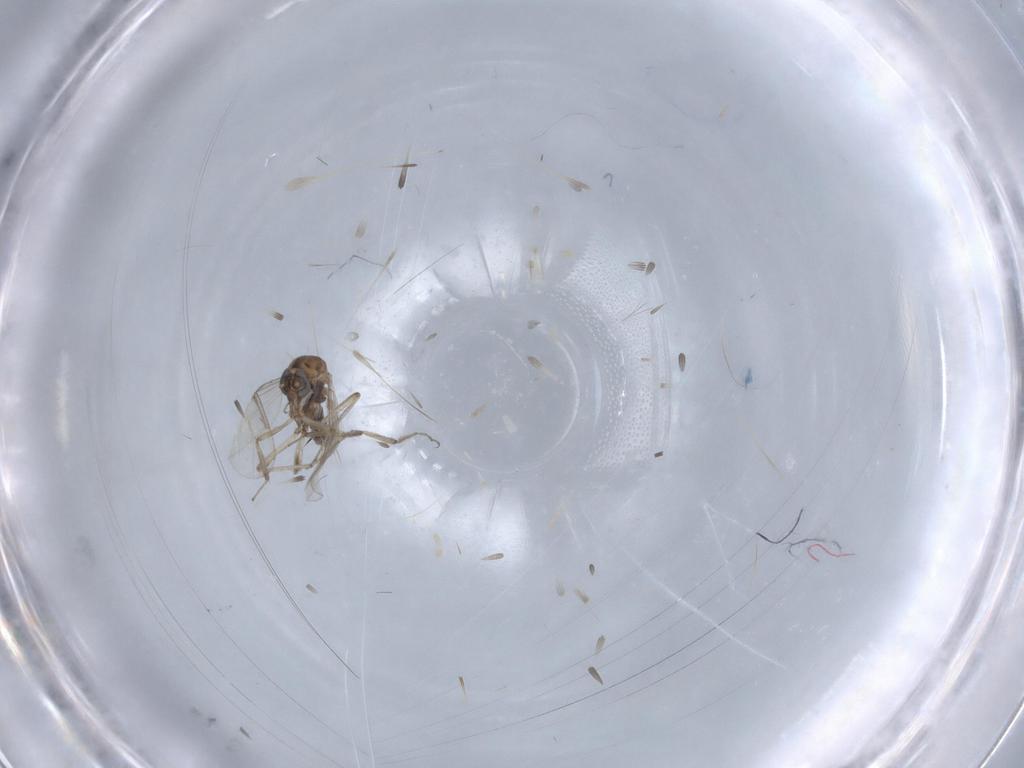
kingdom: Animalia
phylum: Arthropoda
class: Insecta
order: Diptera
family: Ceratopogonidae
